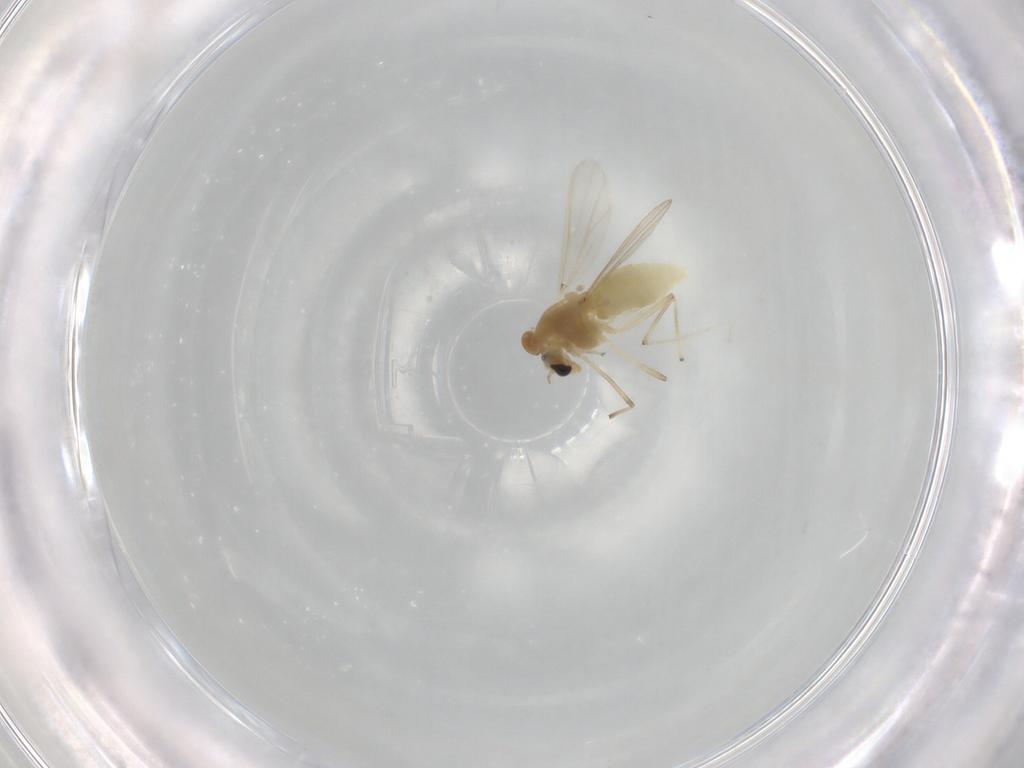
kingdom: Animalia
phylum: Arthropoda
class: Insecta
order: Diptera
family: Chironomidae
